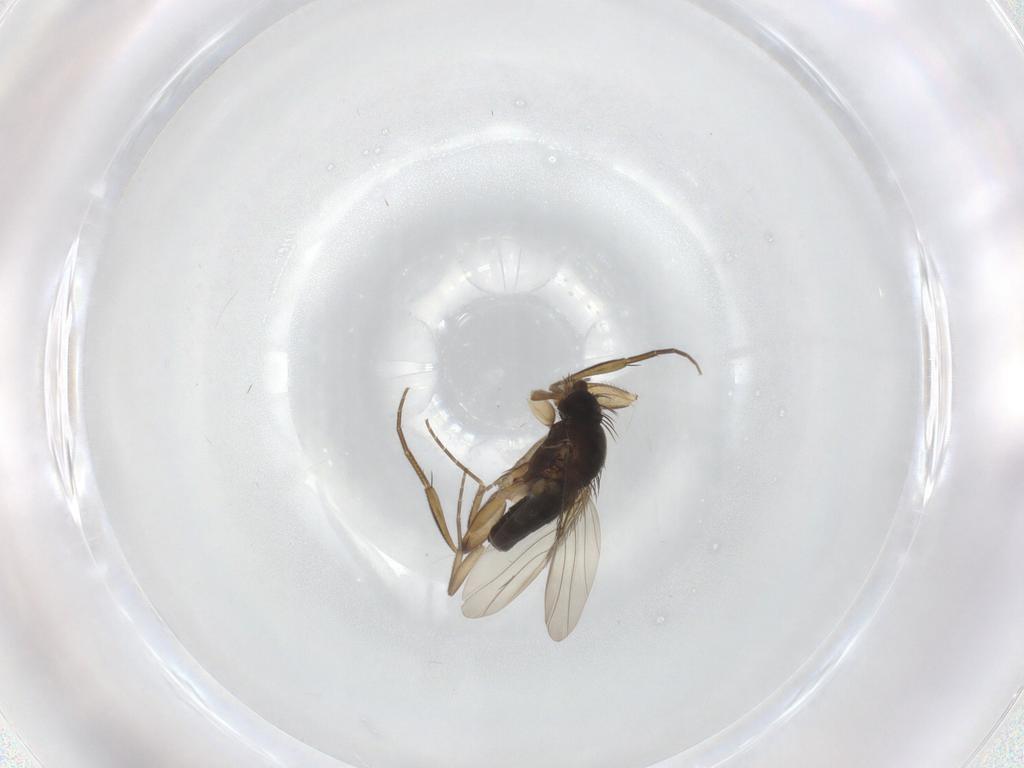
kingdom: Animalia
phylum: Arthropoda
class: Insecta
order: Diptera
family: Phoridae
